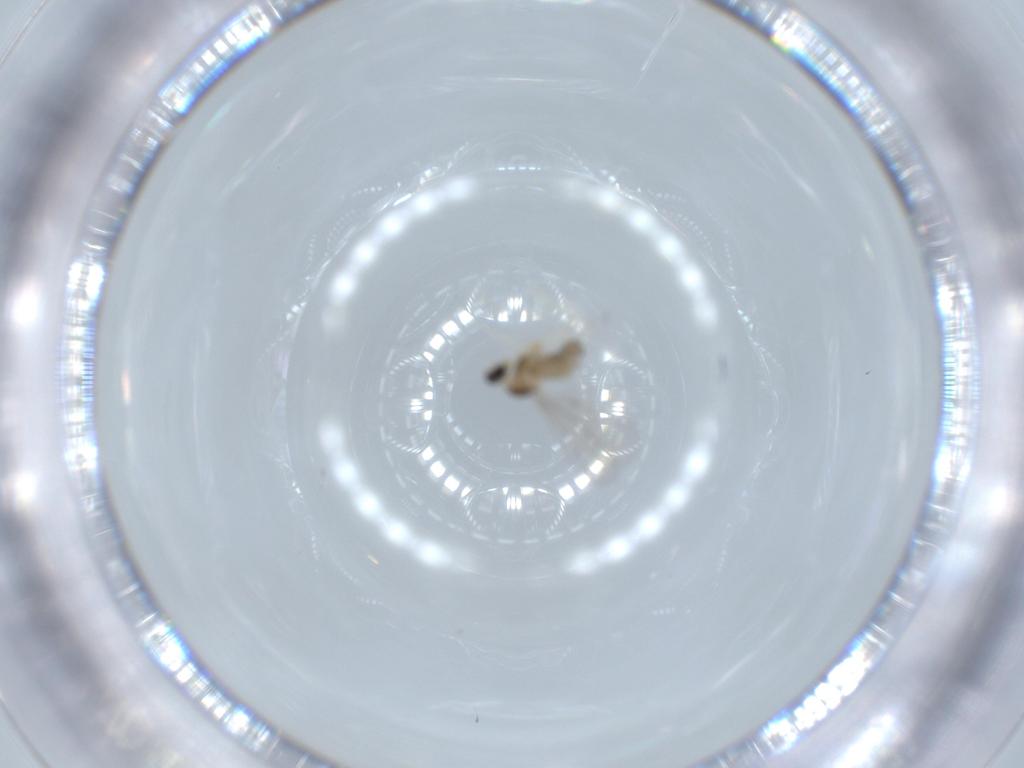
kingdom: Animalia
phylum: Arthropoda
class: Insecta
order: Diptera
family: Cecidomyiidae
